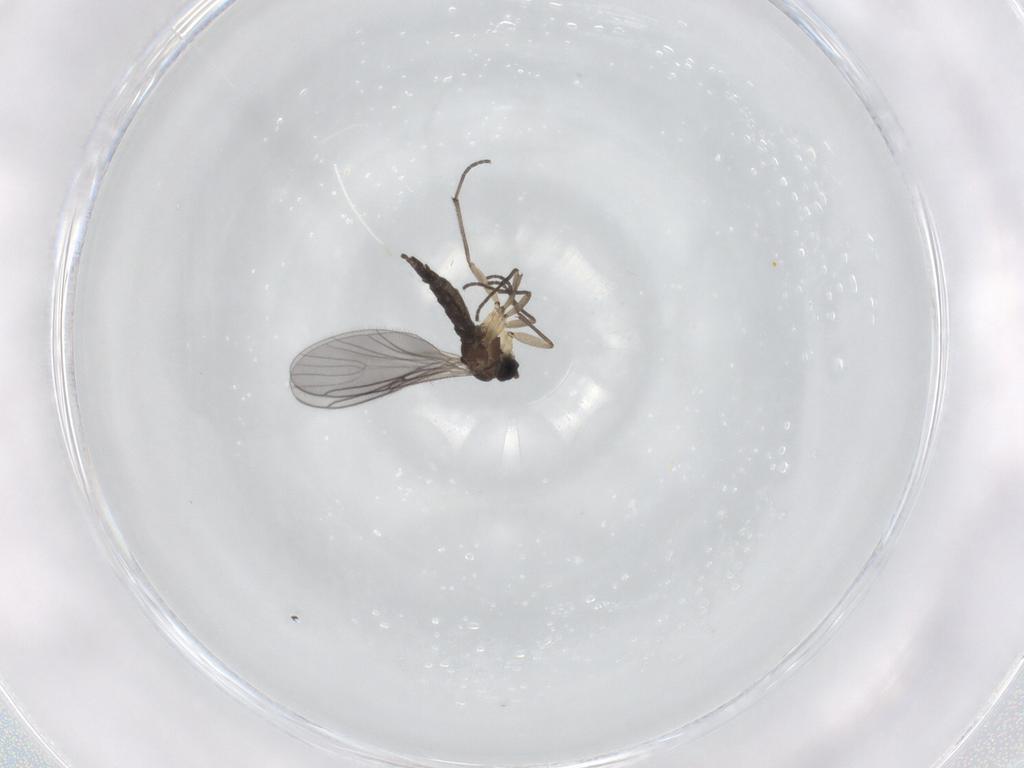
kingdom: Animalia
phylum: Arthropoda
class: Insecta
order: Diptera
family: Sciaridae
